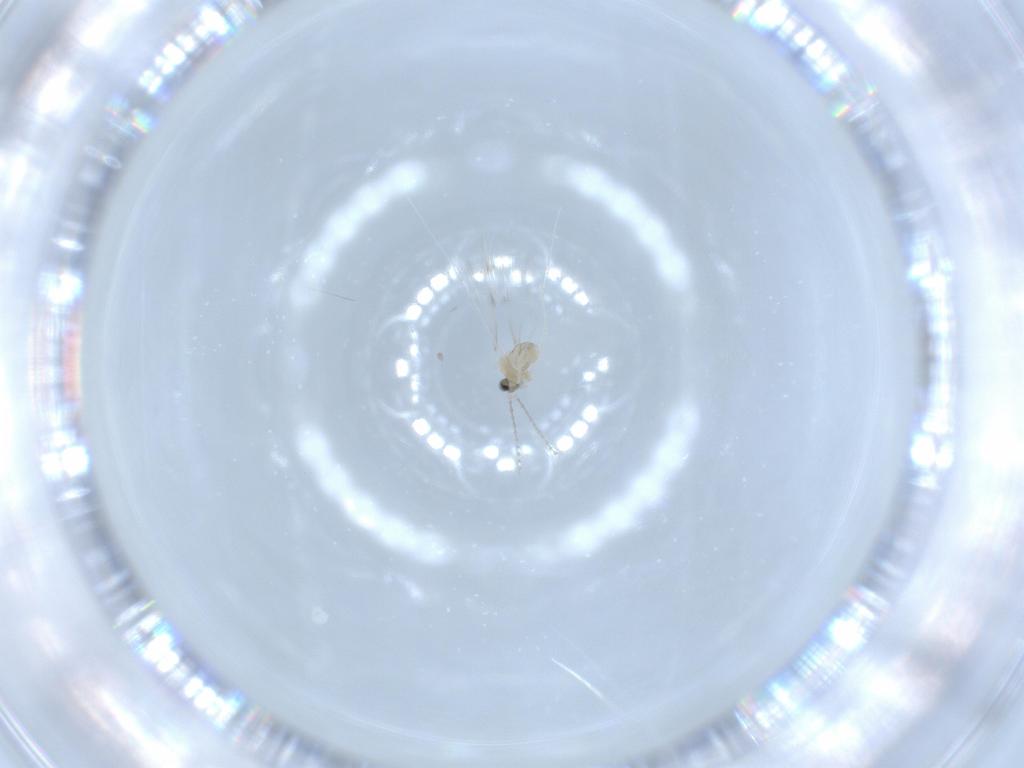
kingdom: Animalia
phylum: Arthropoda
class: Insecta
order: Diptera
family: Cecidomyiidae
